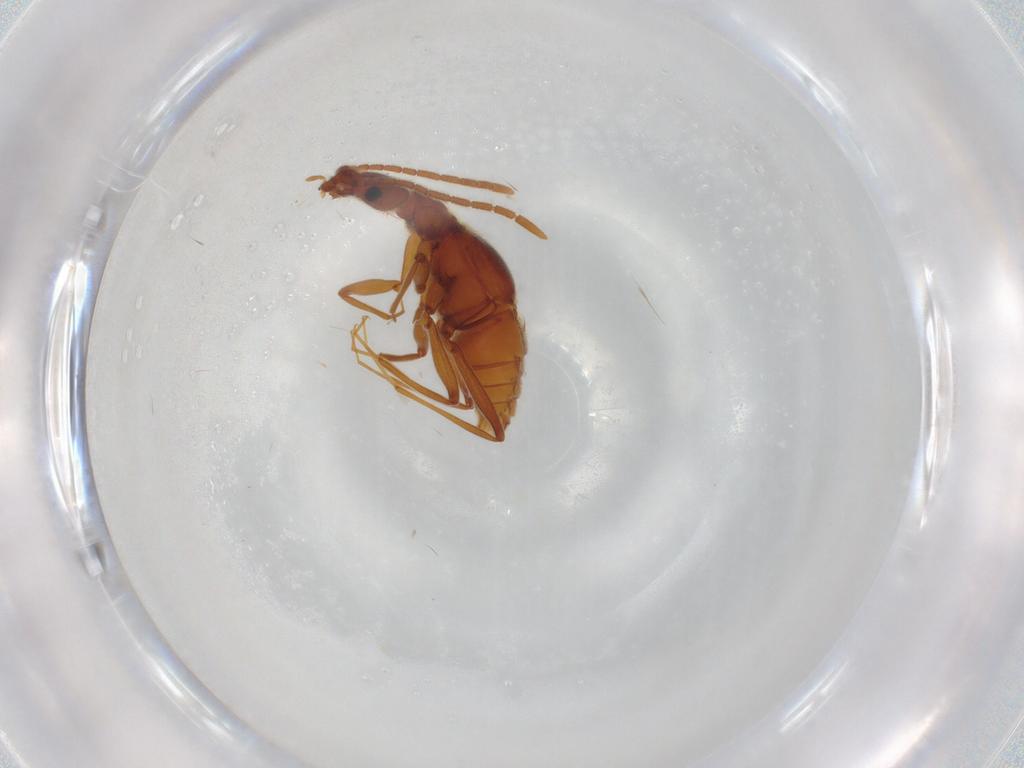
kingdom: Animalia
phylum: Arthropoda
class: Insecta
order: Coleoptera
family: Staphylinidae
